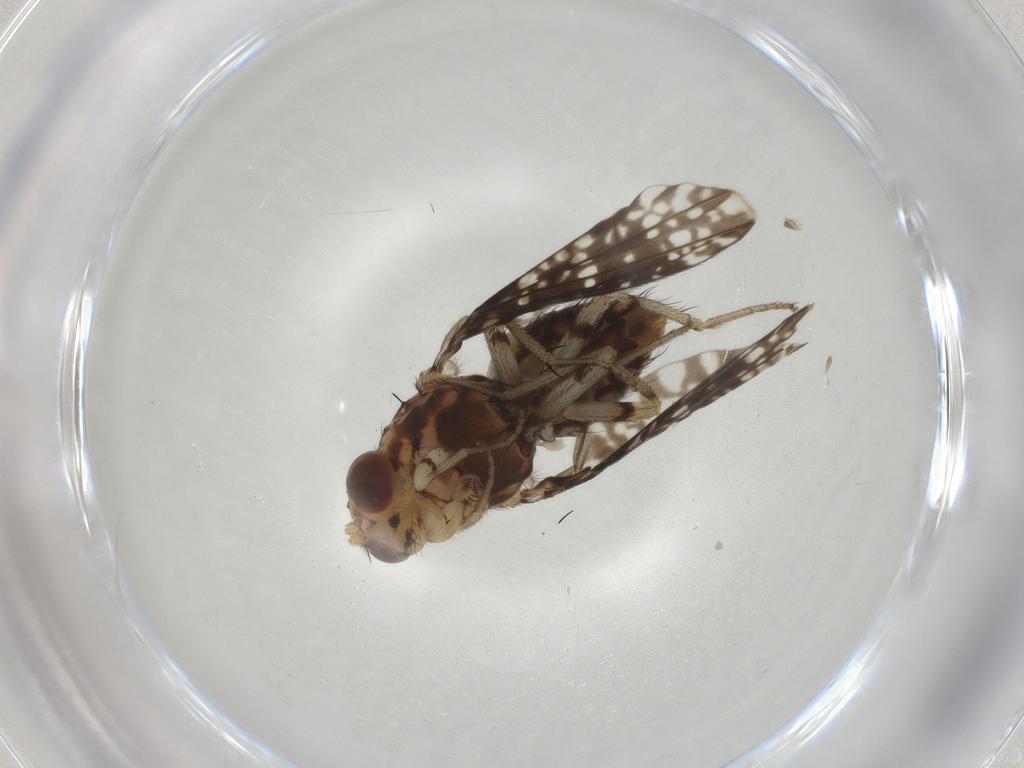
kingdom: Animalia
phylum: Arthropoda
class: Insecta
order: Diptera
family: Lauxaniidae
